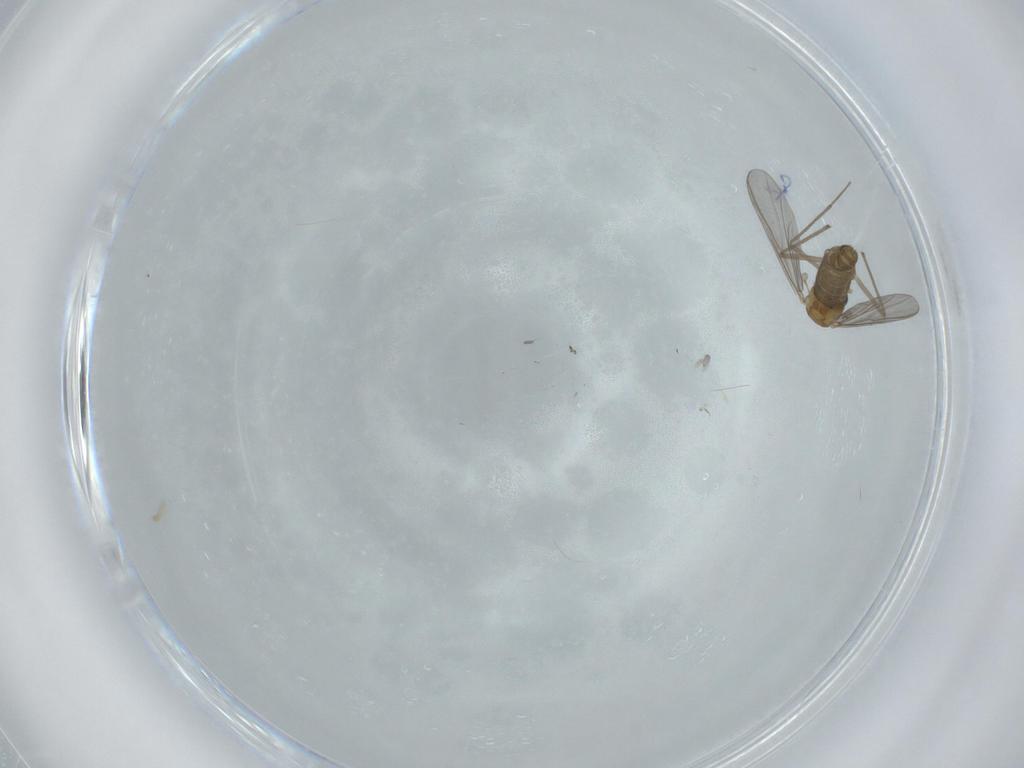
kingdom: Animalia
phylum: Arthropoda
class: Insecta
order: Diptera
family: Chironomidae
